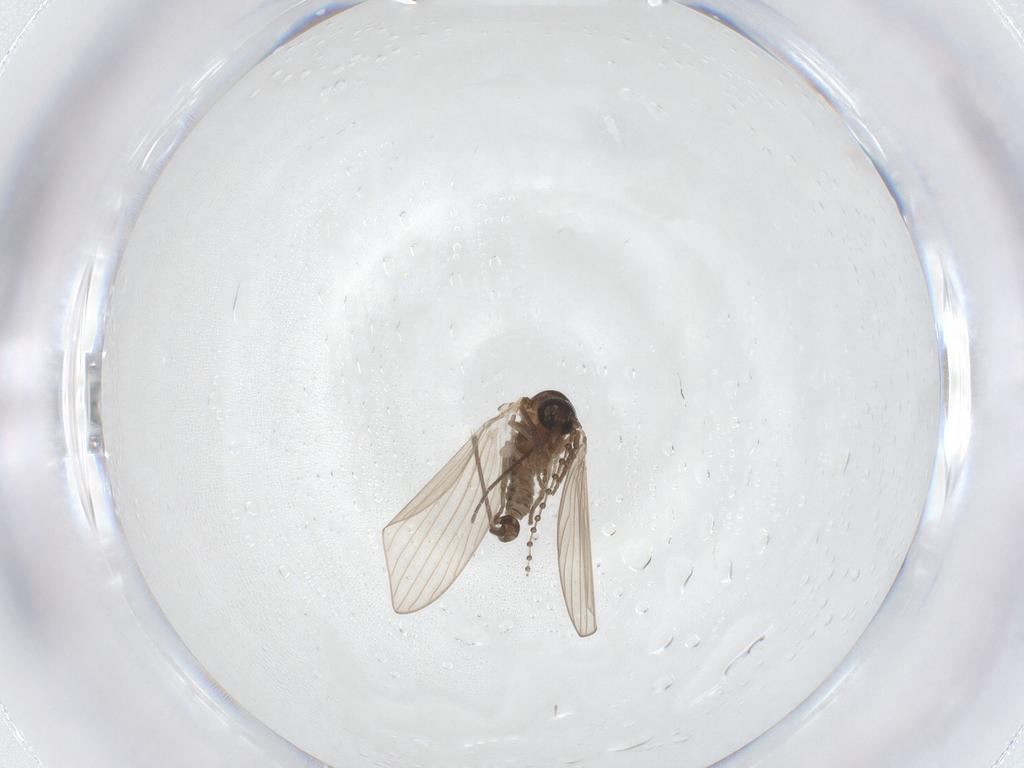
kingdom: Animalia
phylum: Arthropoda
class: Insecta
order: Diptera
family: Psychodidae
